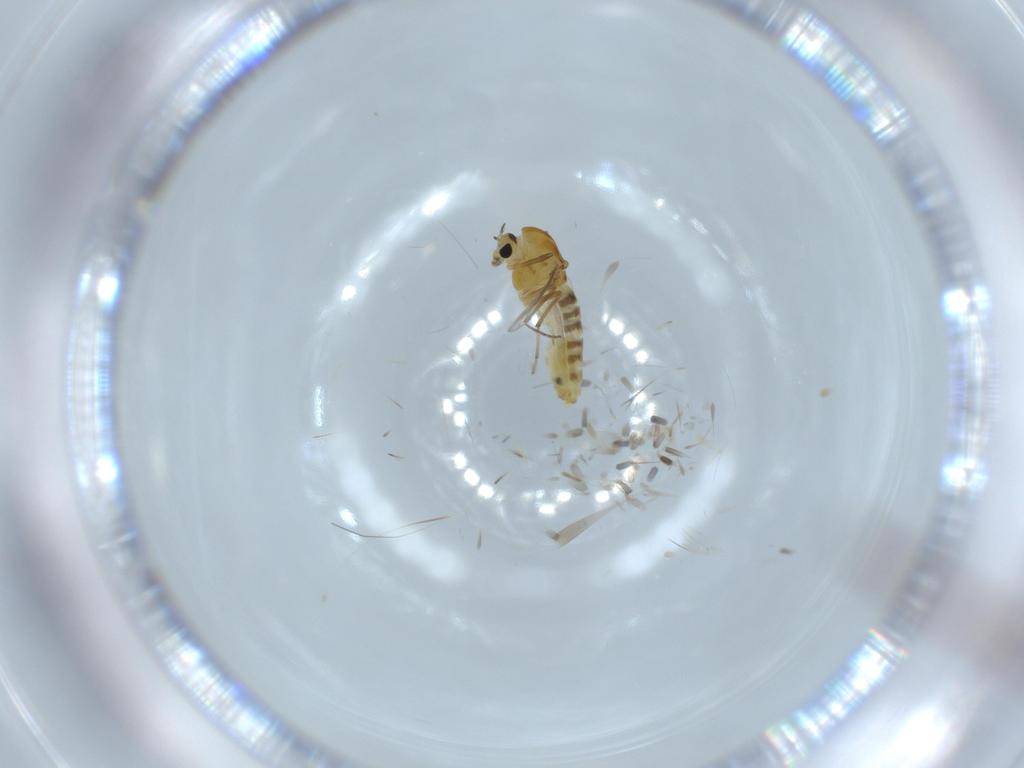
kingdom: Animalia
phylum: Arthropoda
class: Insecta
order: Diptera
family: Chironomidae
